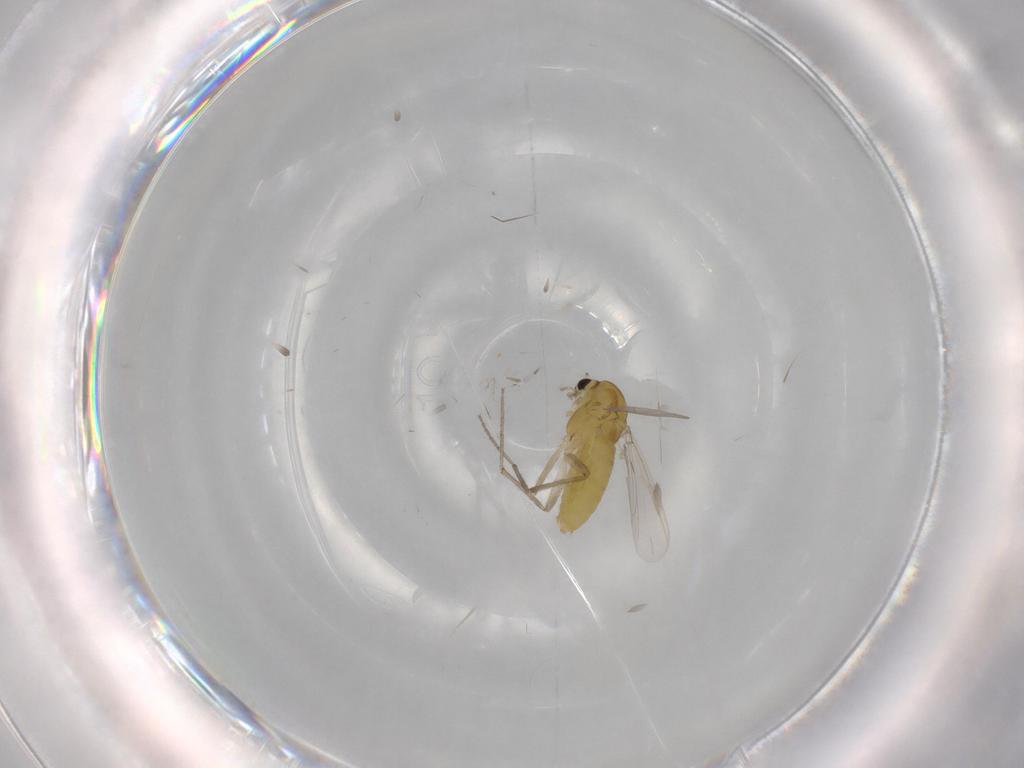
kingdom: Animalia
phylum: Arthropoda
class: Insecta
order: Diptera
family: Chironomidae
